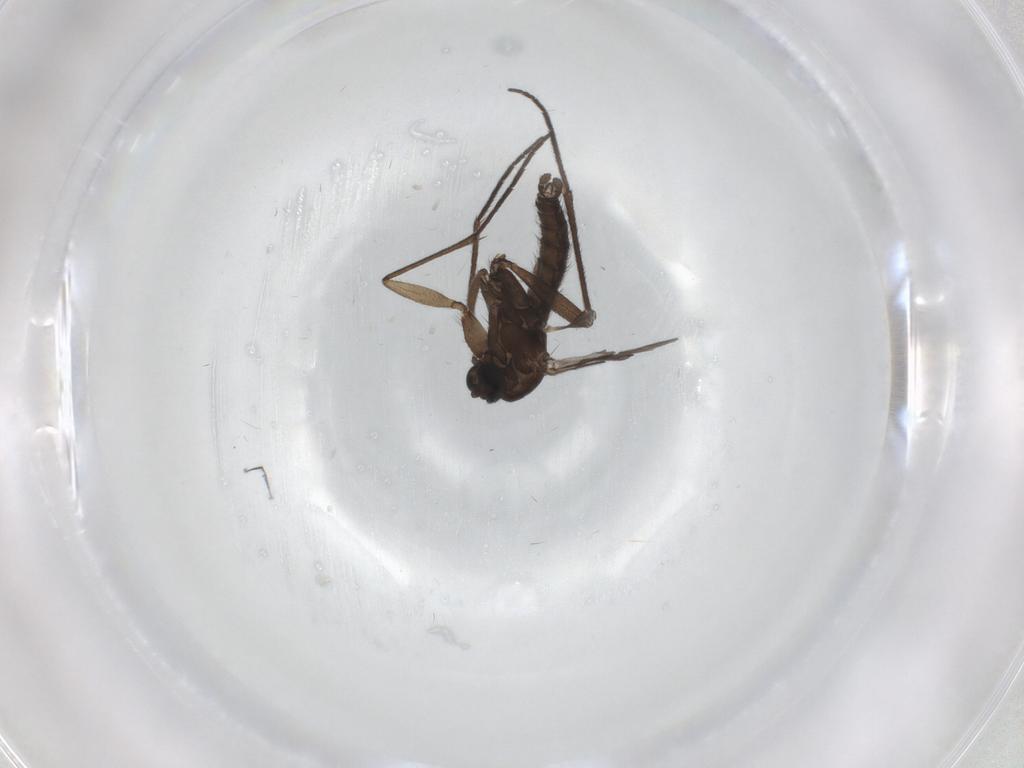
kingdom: Animalia
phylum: Arthropoda
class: Insecta
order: Diptera
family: Sciaridae
